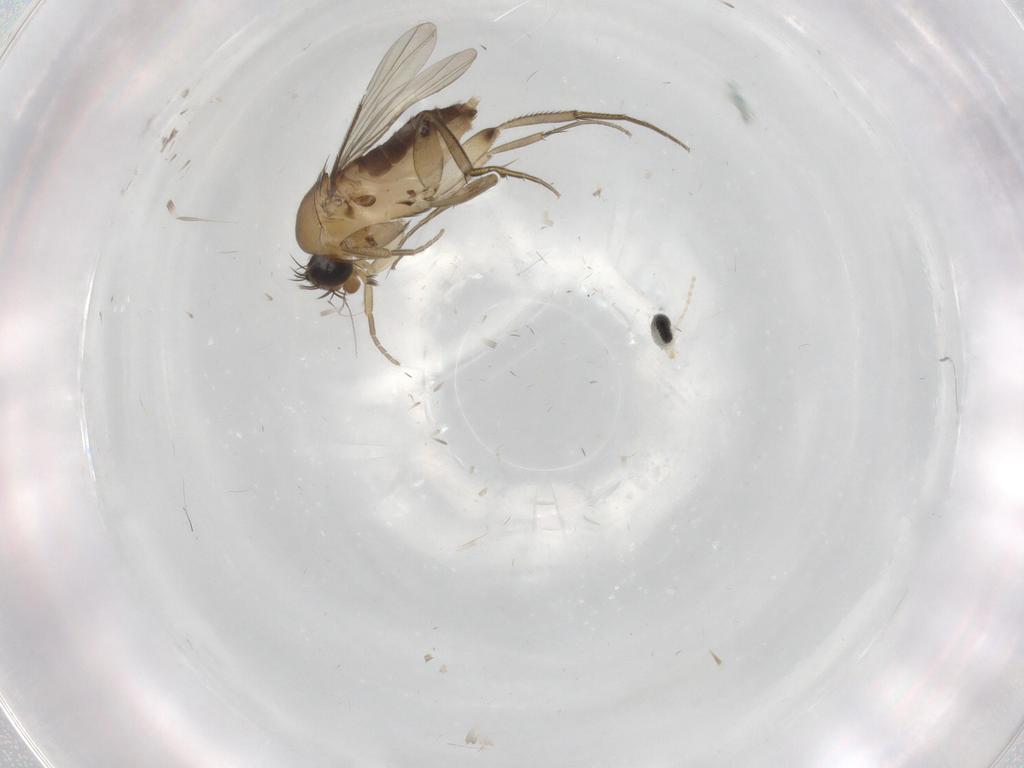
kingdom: Animalia
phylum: Arthropoda
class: Insecta
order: Diptera
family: Phoridae
